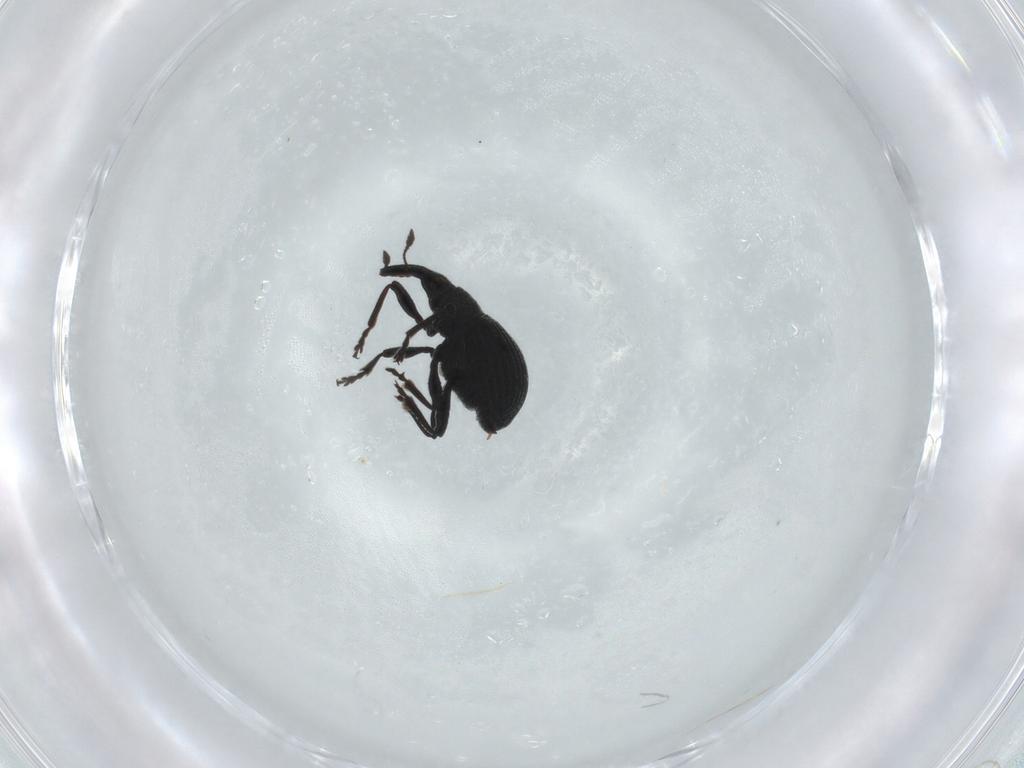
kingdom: Animalia
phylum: Arthropoda
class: Insecta
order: Coleoptera
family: Brentidae
